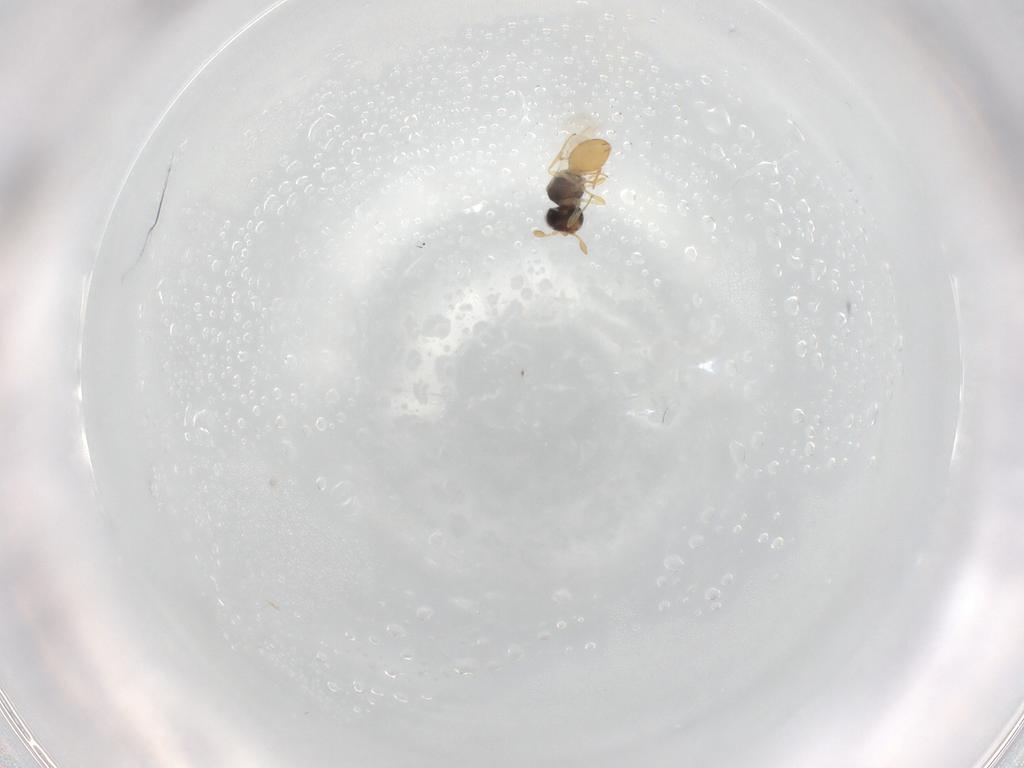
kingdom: Animalia
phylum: Arthropoda
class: Insecta
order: Hymenoptera
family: Scelionidae
